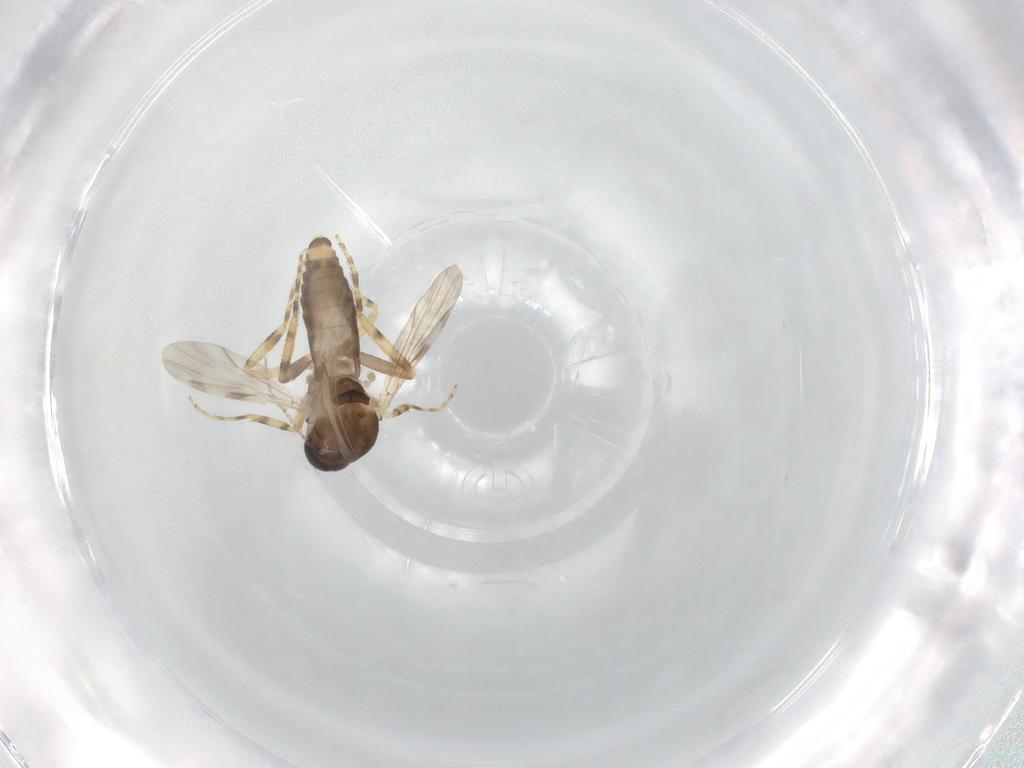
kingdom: Animalia
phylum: Arthropoda
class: Insecta
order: Diptera
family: Ceratopogonidae
